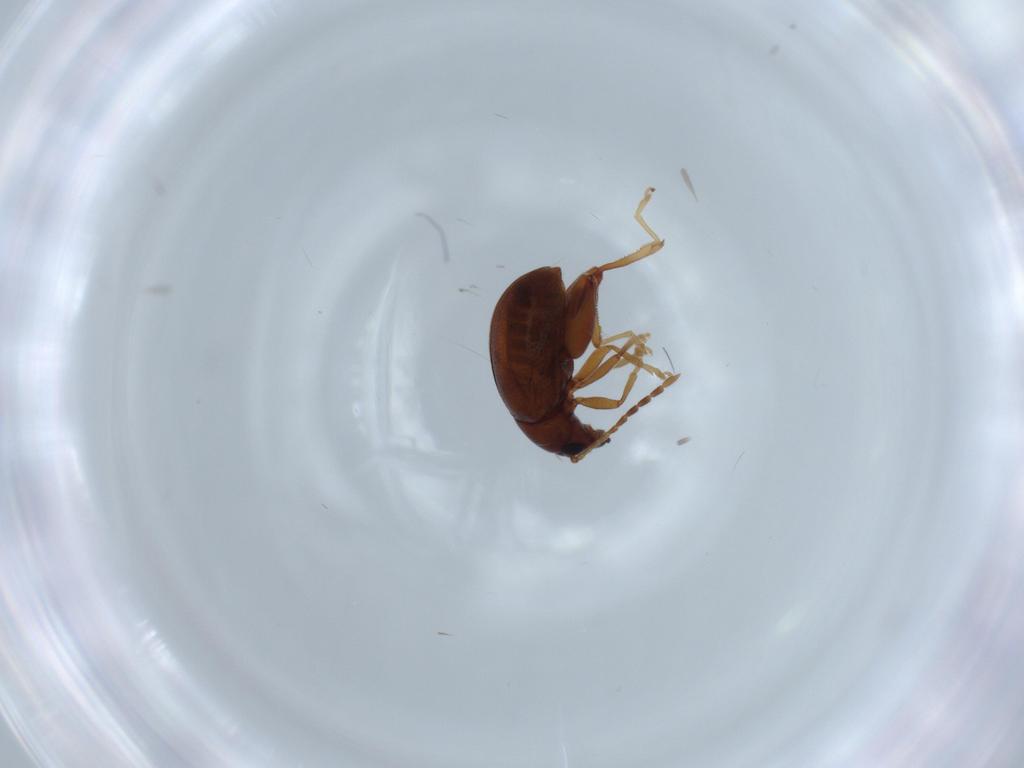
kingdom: Animalia
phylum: Arthropoda
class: Insecta
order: Coleoptera
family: Chrysomelidae
